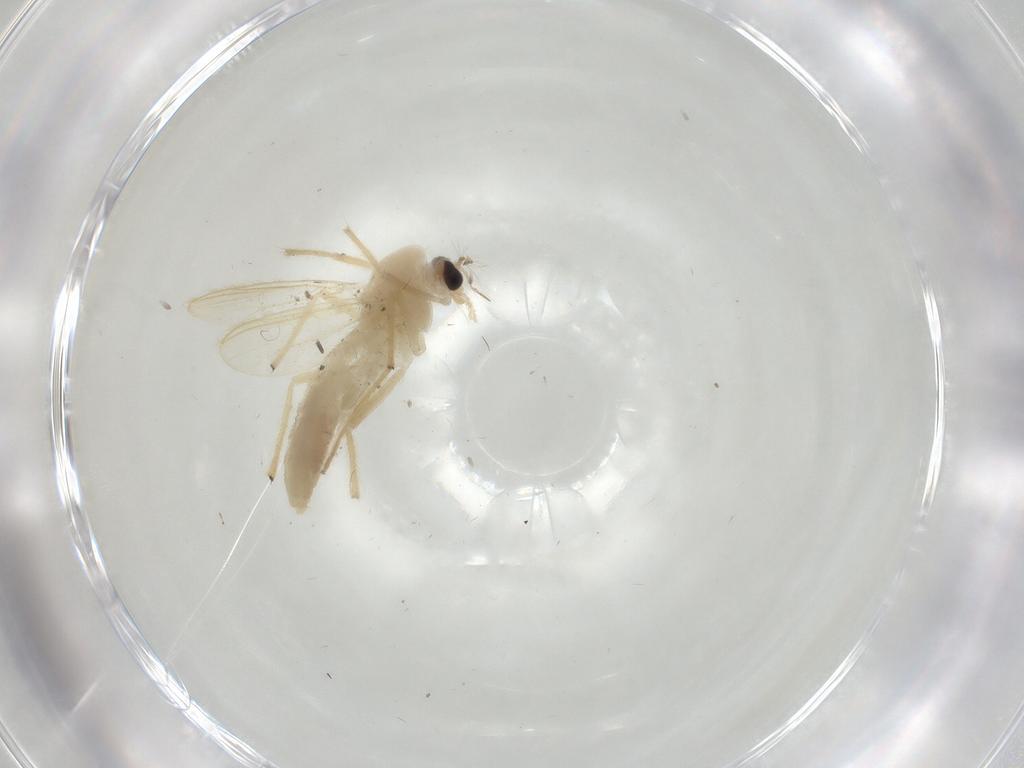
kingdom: Animalia
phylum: Arthropoda
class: Insecta
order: Diptera
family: Chironomidae
